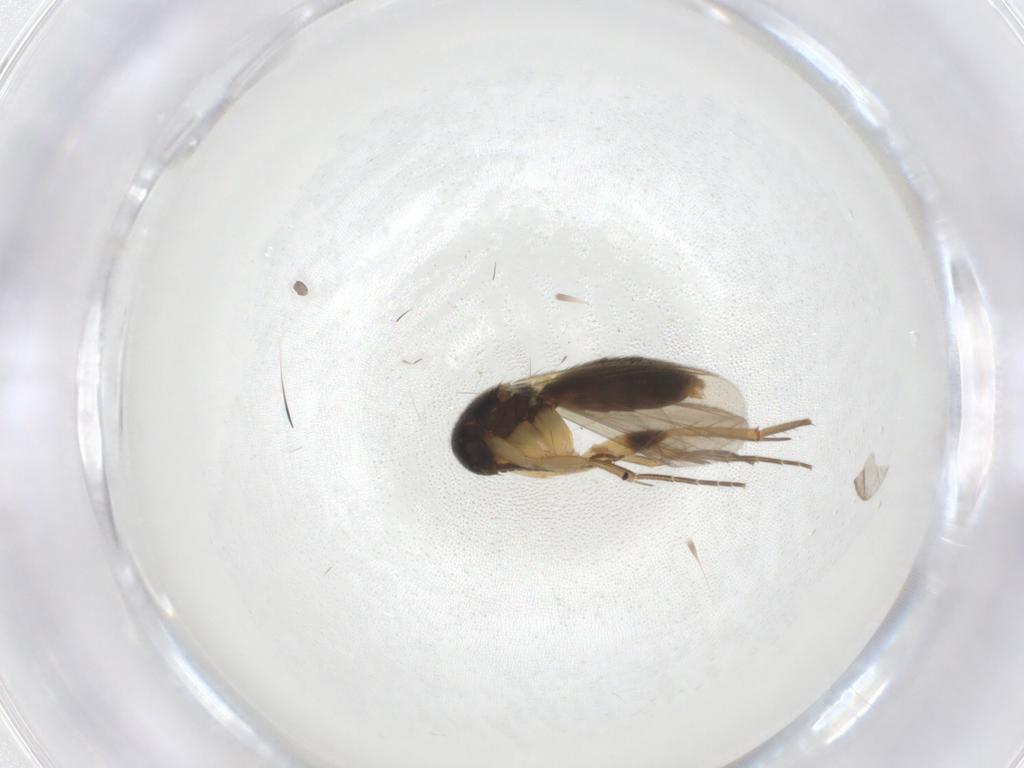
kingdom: Animalia
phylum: Arthropoda
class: Insecta
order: Diptera
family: Mycetophilidae
